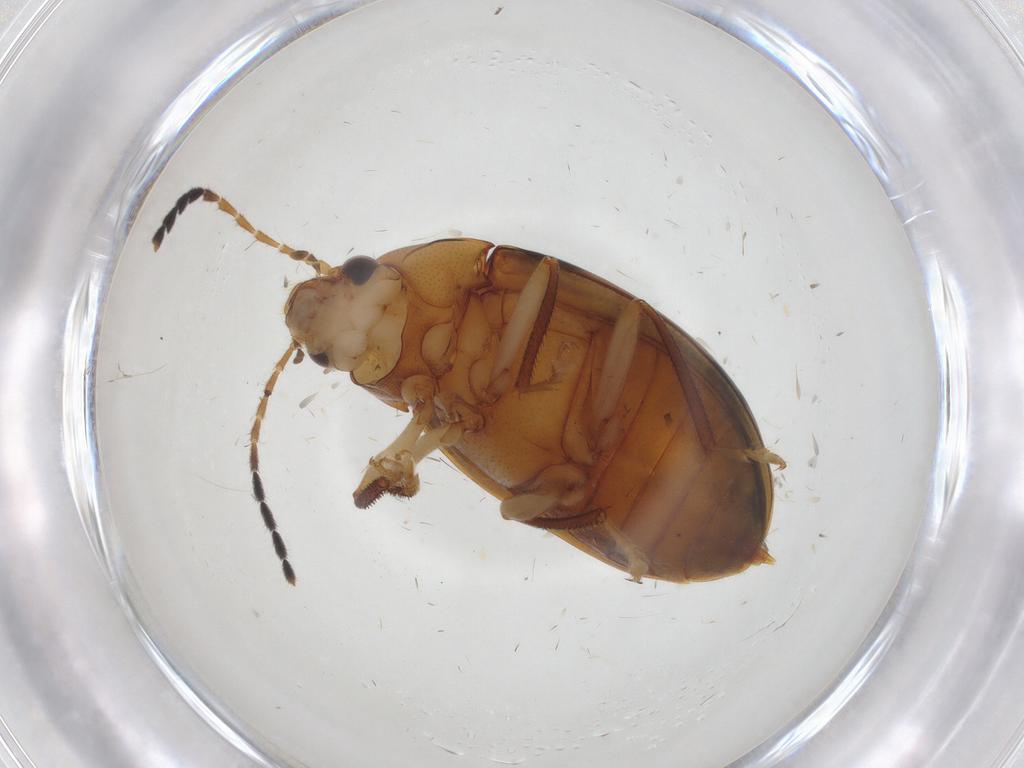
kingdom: Animalia
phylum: Arthropoda
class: Insecta
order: Coleoptera
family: Ptilodactylidae
